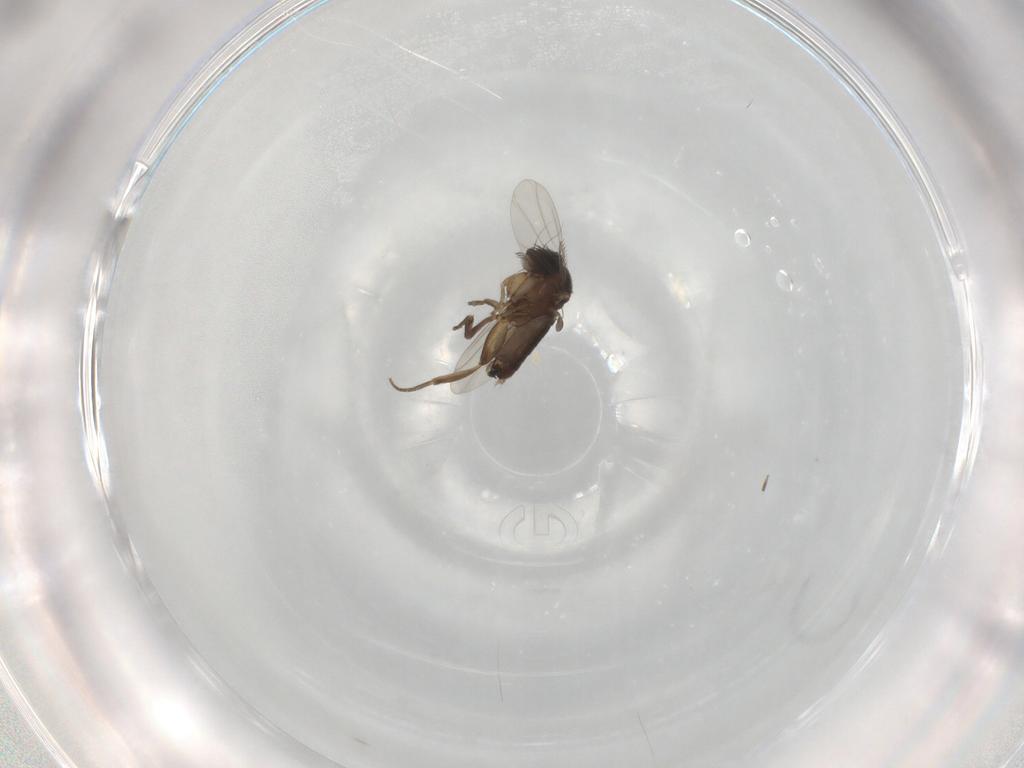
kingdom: Animalia
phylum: Arthropoda
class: Insecta
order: Diptera
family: Phoridae
